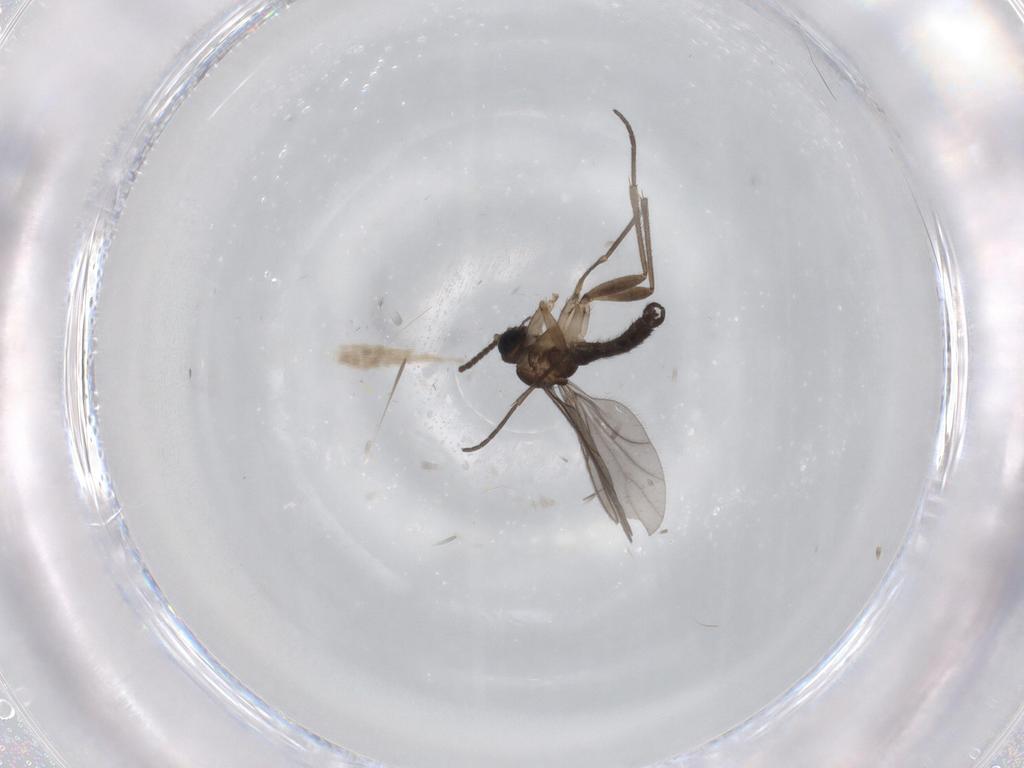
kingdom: Animalia
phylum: Arthropoda
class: Insecta
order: Diptera
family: Sciaridae
